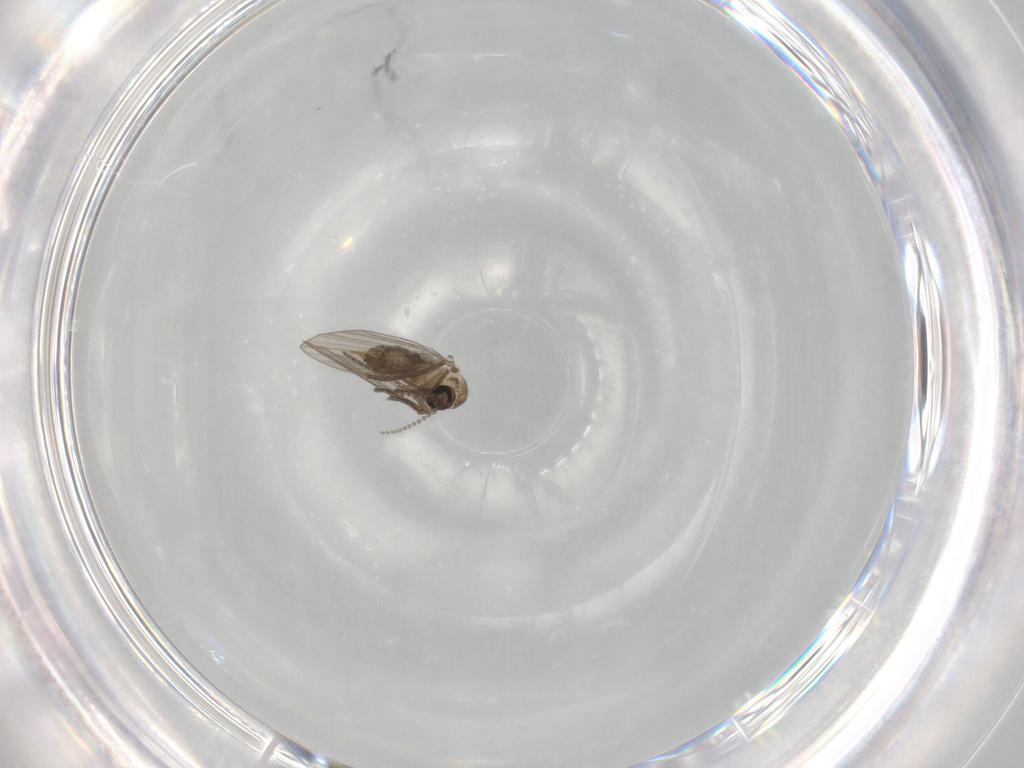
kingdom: Animalia
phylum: Arthropoda
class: Insecta
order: Diptera
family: Psychodidae
